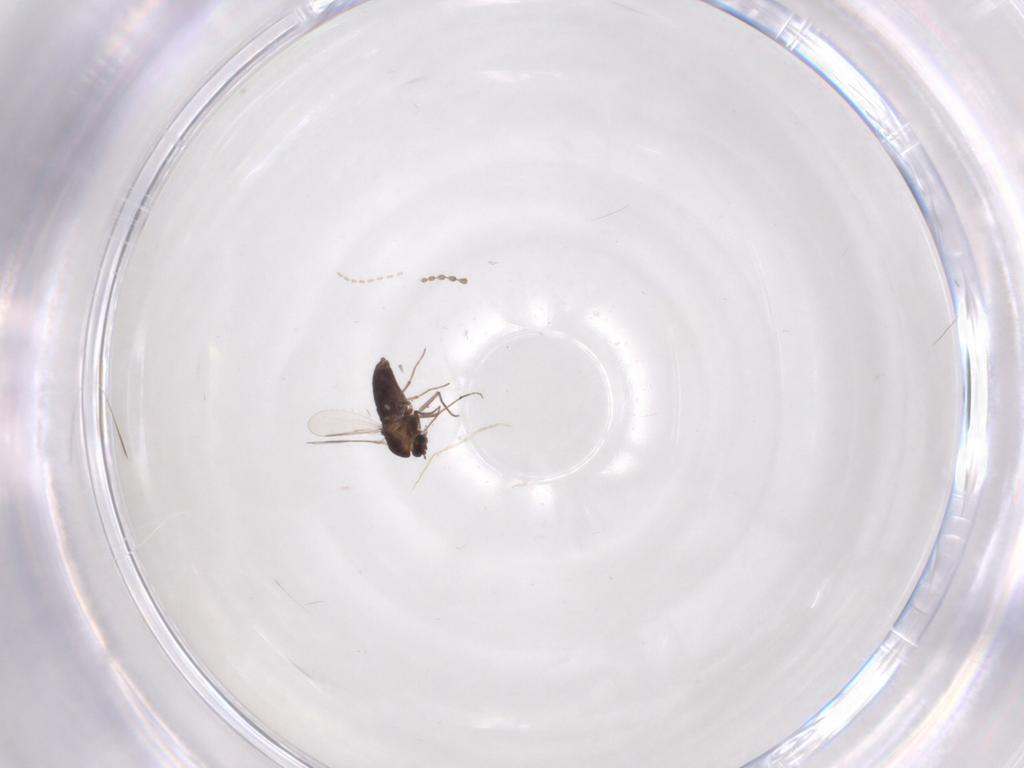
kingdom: Animalia
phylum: Arthropoda
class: Insecta
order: Diptera
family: Chironomidae
